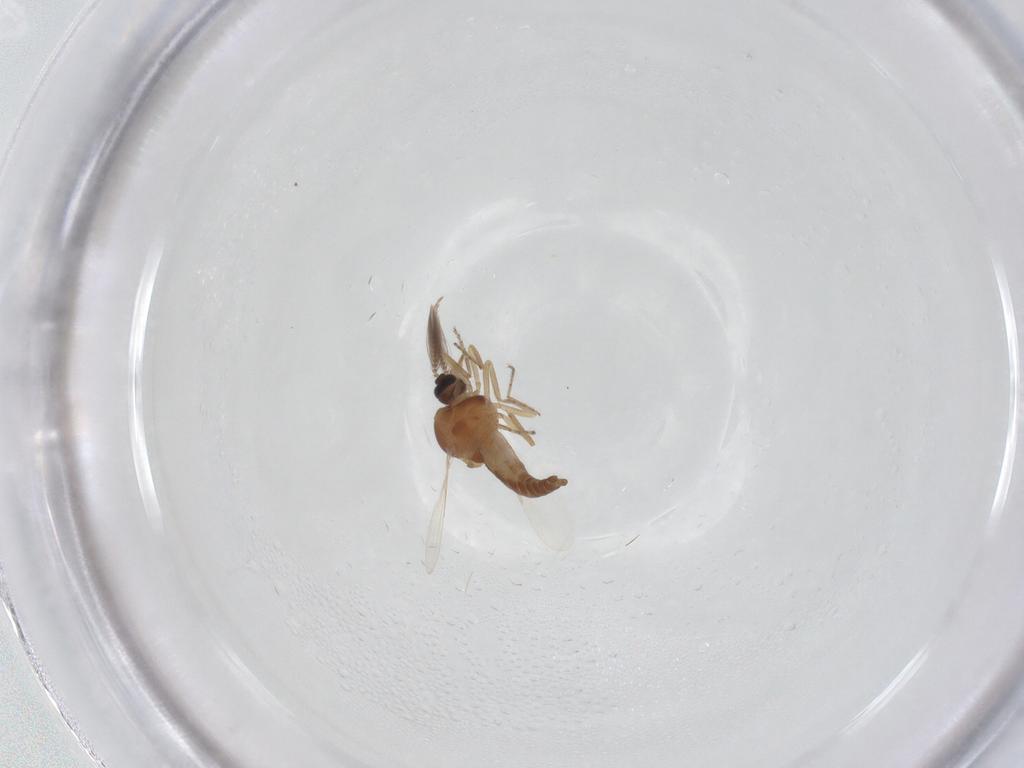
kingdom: Animalia
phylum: Arthropoda
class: Insecta
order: Diptera
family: Ceratopogonidae
